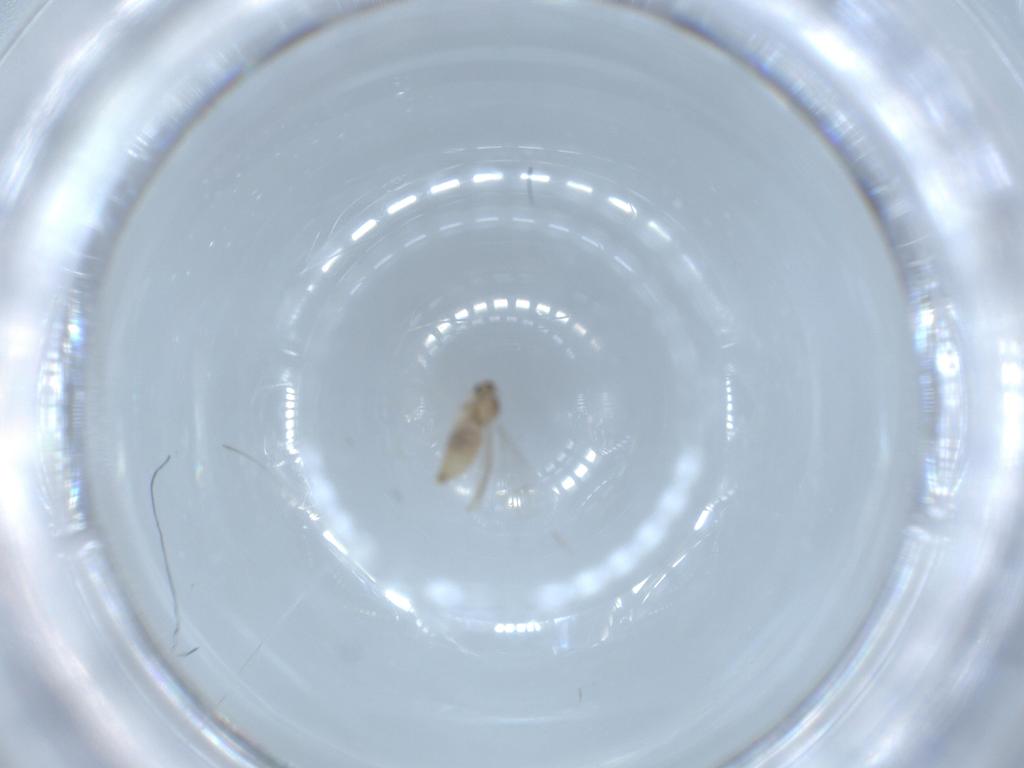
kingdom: Animalia
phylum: Arthropoda
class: Insecta
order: Diptera
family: Cecidomyiidae
